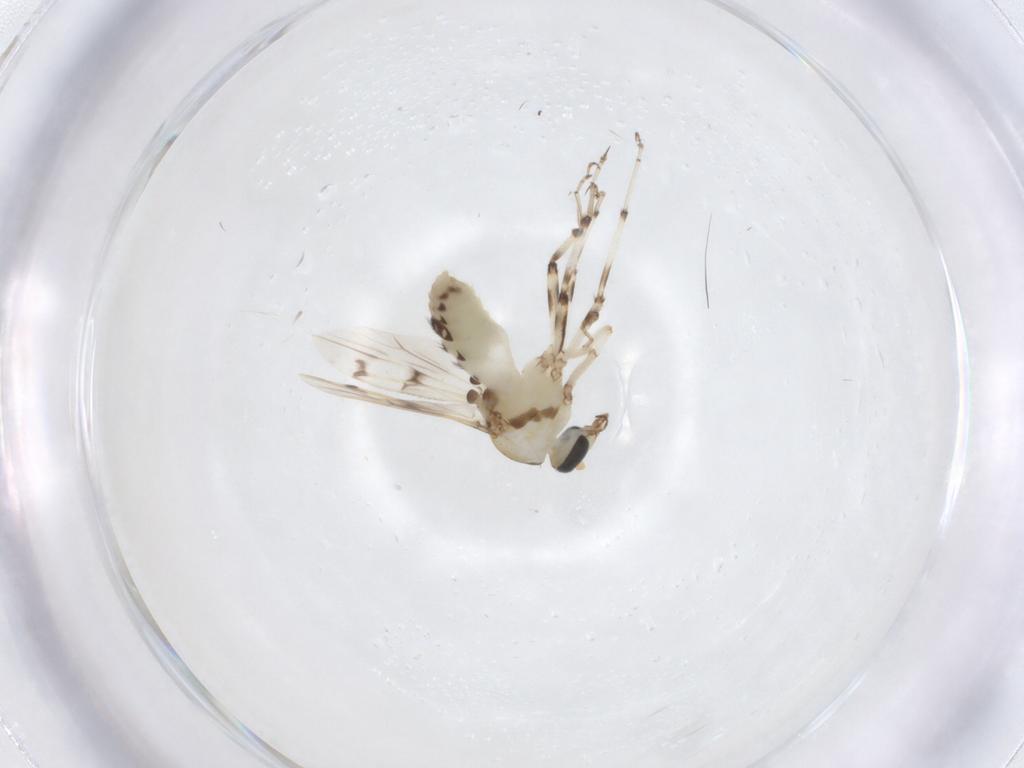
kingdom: Animalia
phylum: Arthropoda
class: Insecta
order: Diptera
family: Ceratopogonidae
